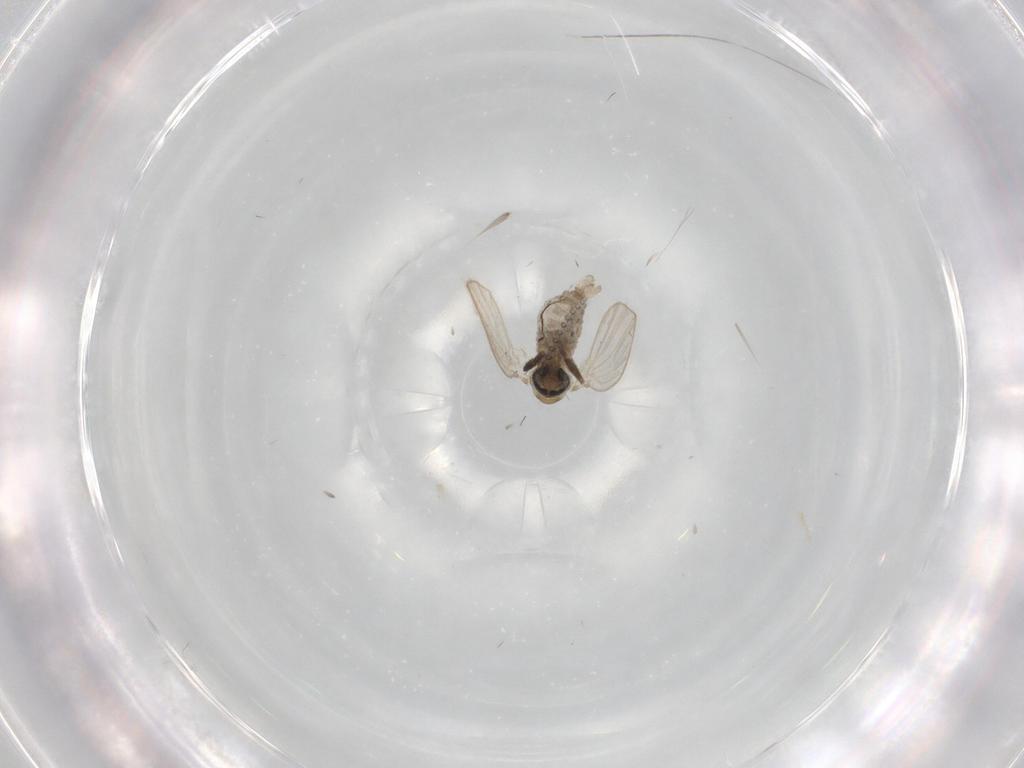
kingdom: Animalia
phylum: Arthropoda
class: Insecta
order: Diptera
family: Psychodidae
